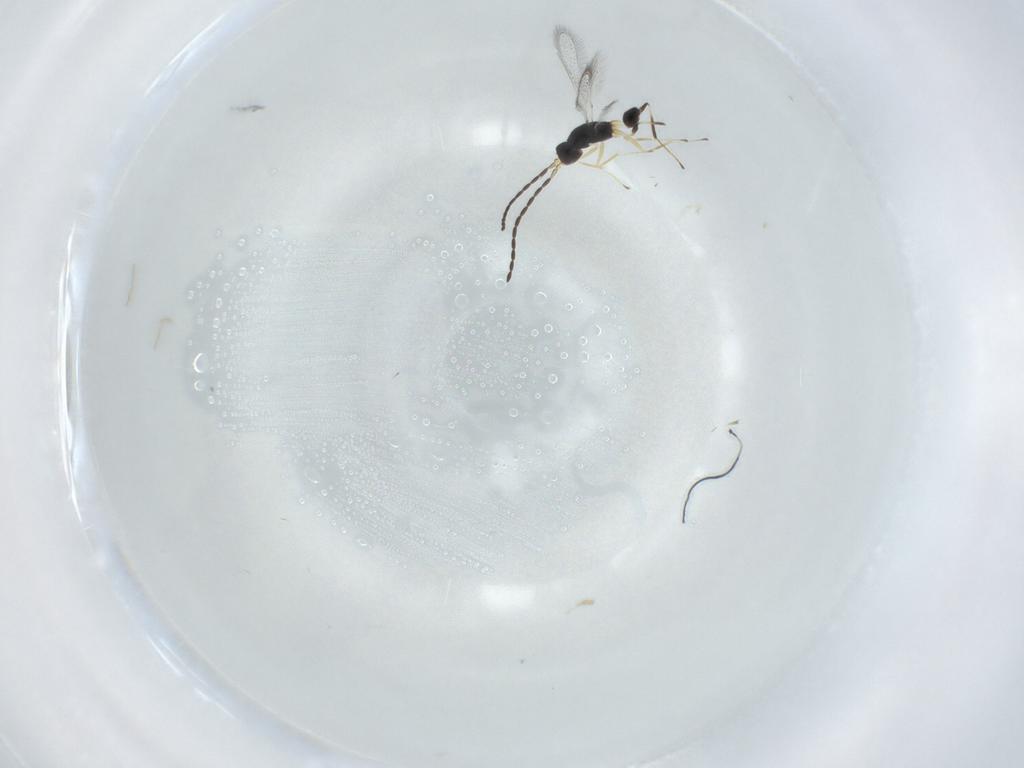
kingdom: Animalia
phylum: Arthropoda
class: Insecta
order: Hymenoptera
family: Mymaridae
